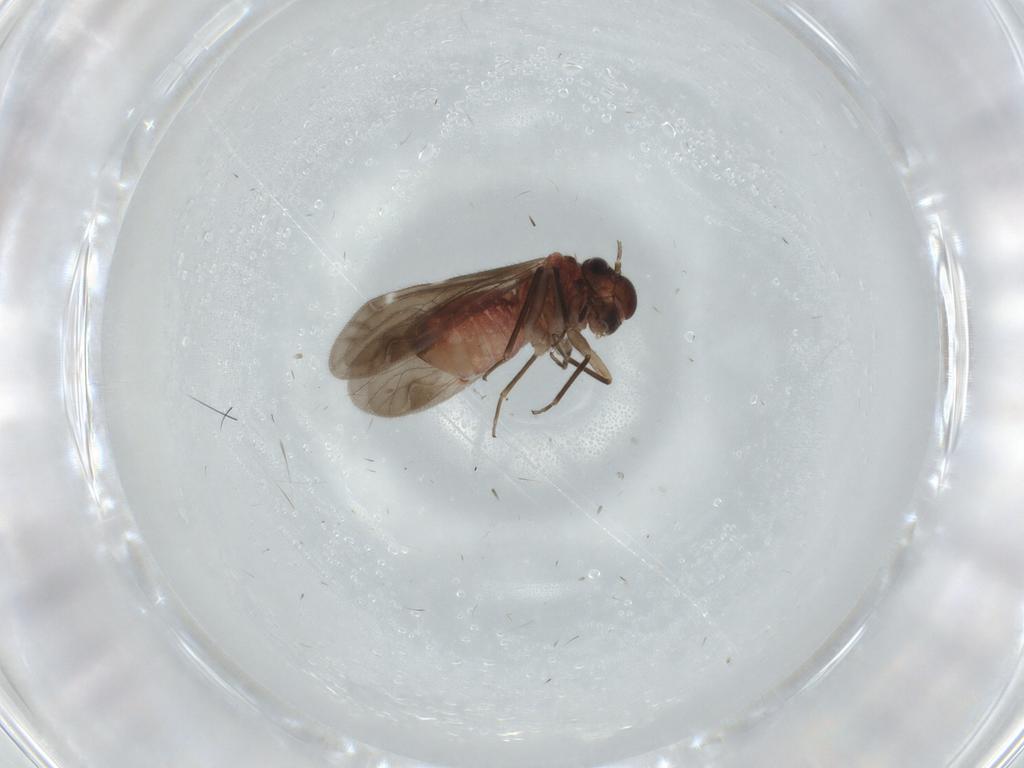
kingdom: Animalia
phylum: Arthropoda
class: Insecta
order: Psocodea
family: Caeciliusidae
